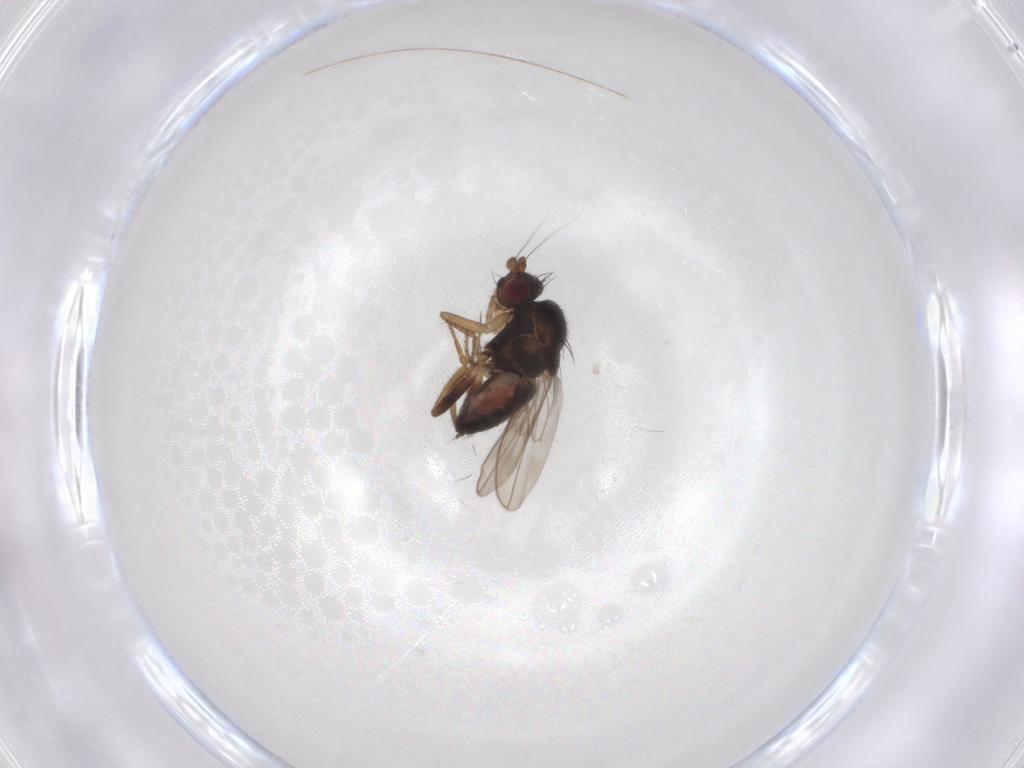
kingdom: Animalia
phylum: Arthropoda
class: Insecta
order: Diptera
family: Sphaeroceridae
